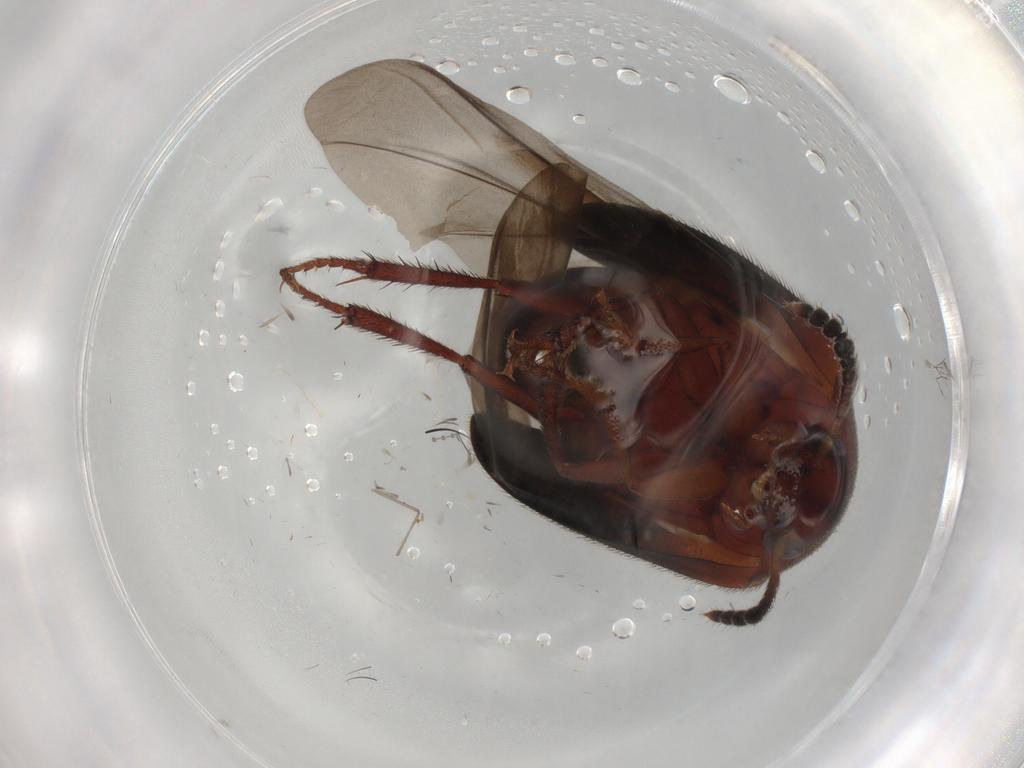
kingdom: Animalia
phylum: Arthropoda
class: Insecta
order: Coleoptera
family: Leiodidae
